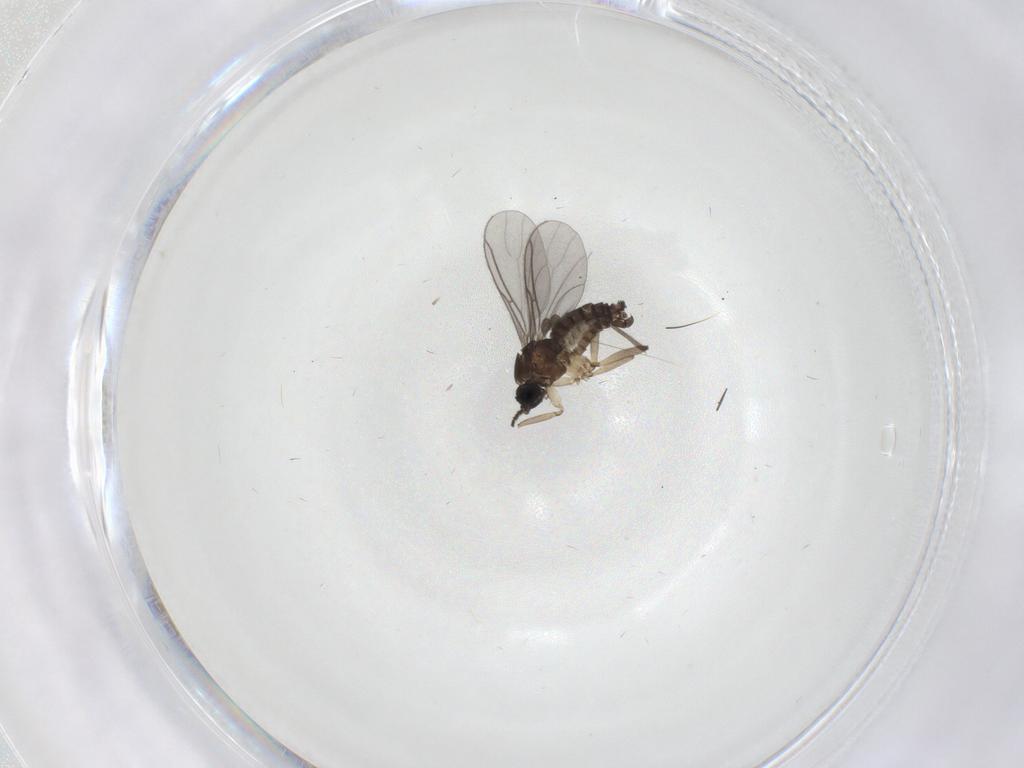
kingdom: Animalia
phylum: Arthropoda
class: Insecta
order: Diptera
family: Sciaridae
